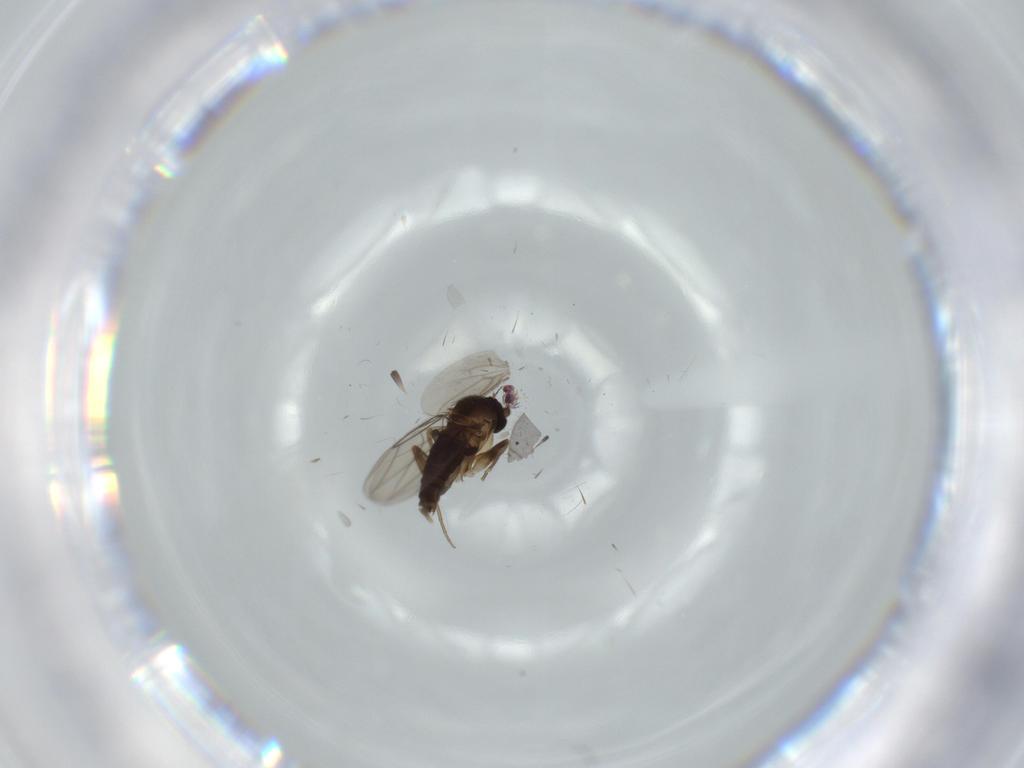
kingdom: Animalia
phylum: Arthropoda
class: Insecta
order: Diptera
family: Phoridae
